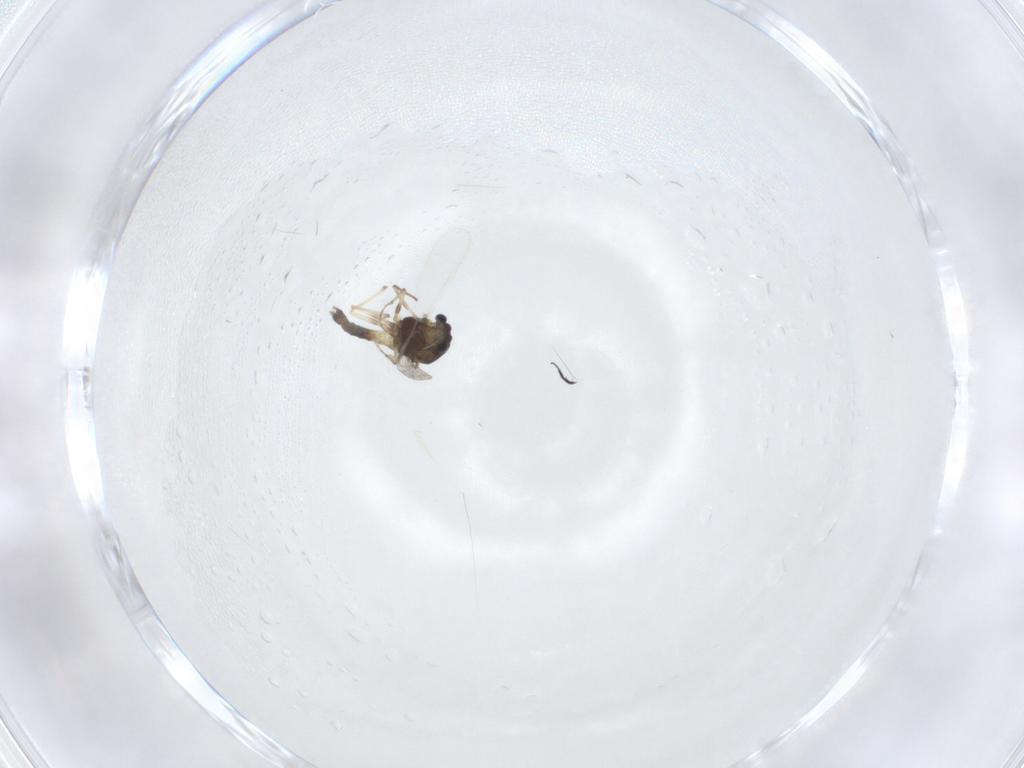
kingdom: Animalia
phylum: Arthropoda
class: Insecta
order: Diptera
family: Chironomidae
